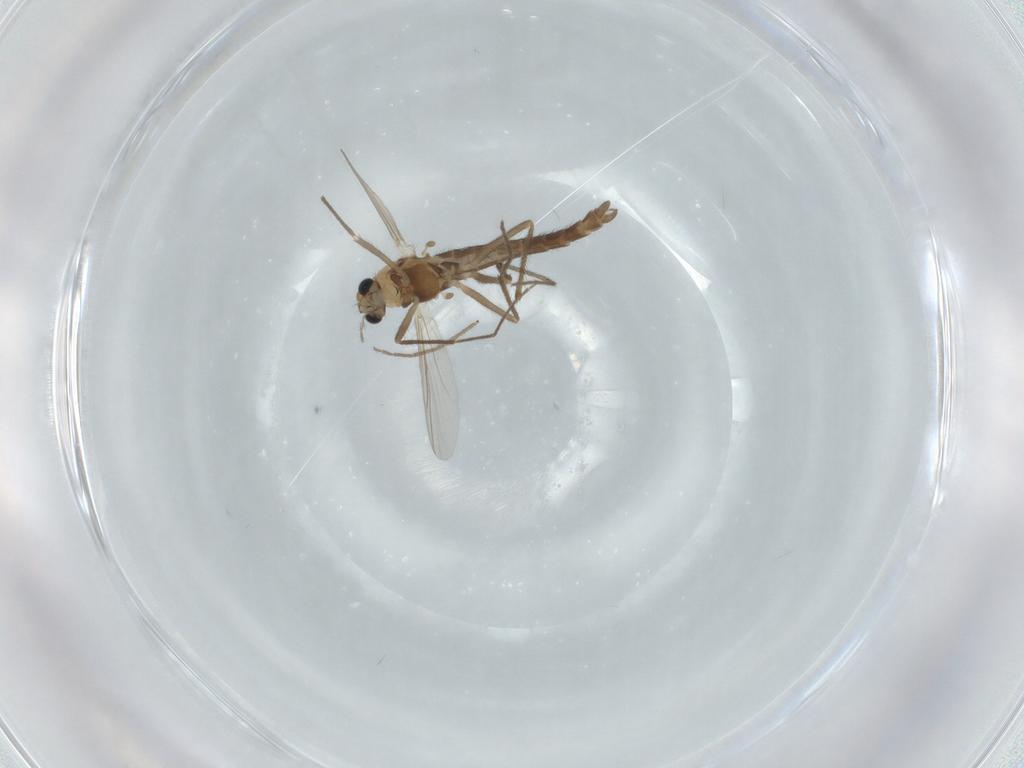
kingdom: Animalia
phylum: Arthropoda
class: Insecta
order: Diptera
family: Chironomidae
